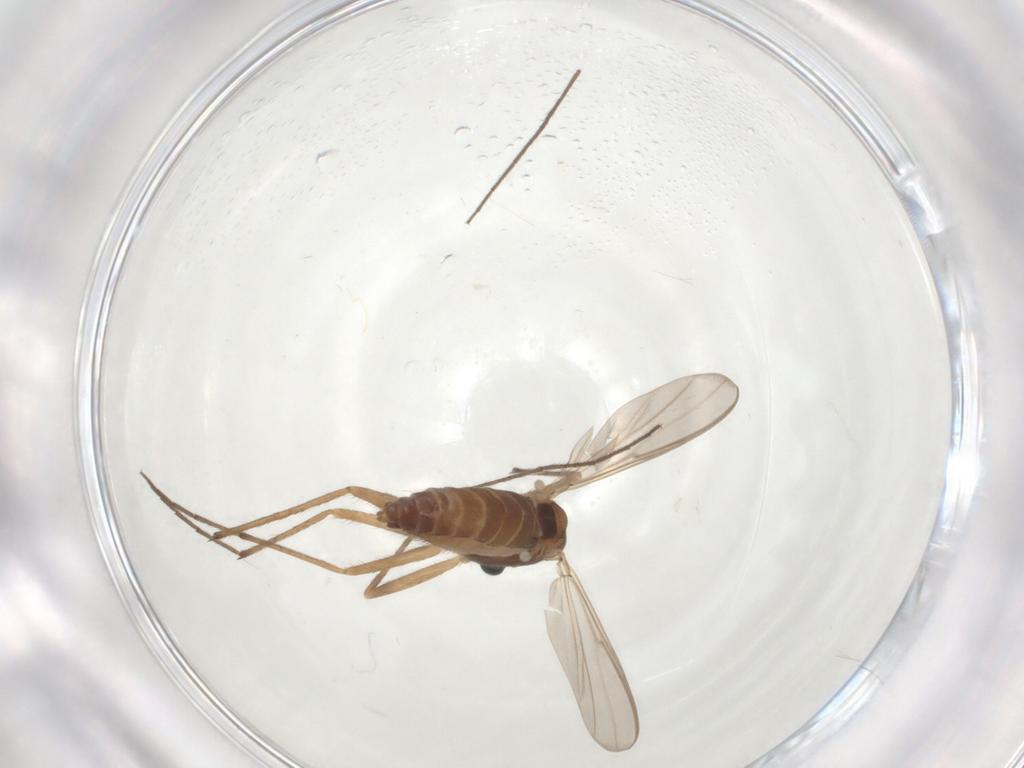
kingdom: Animalia
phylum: Arthropoda
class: Insecta
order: Diptera
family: Chironomidae
